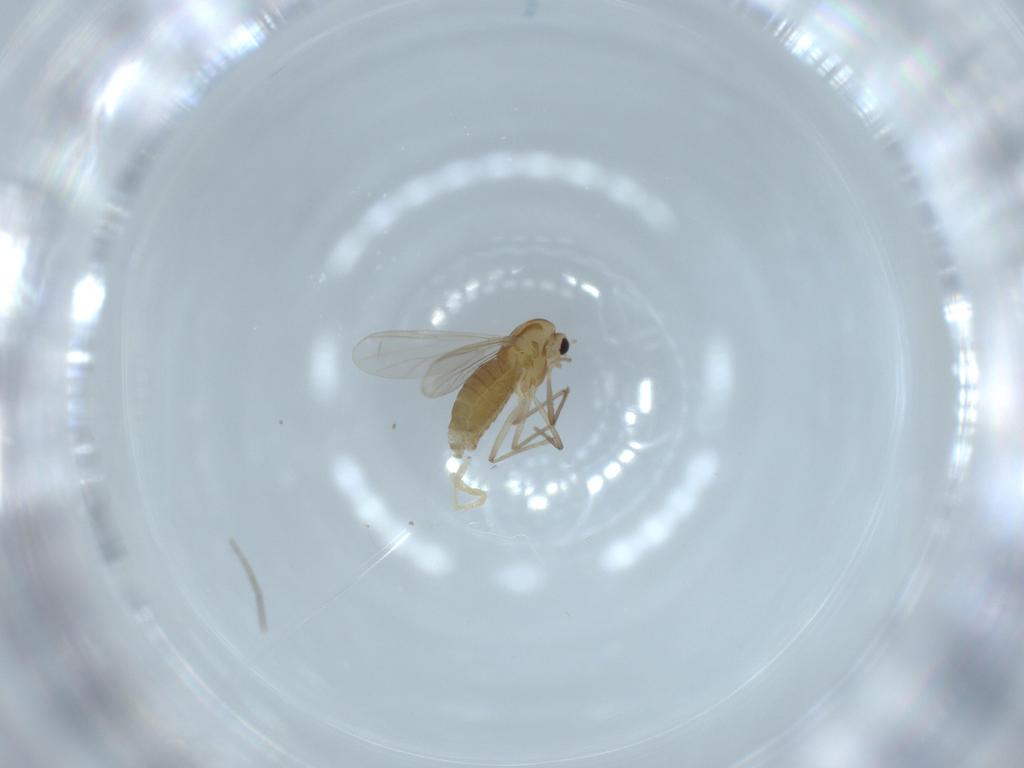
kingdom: Animalia
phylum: Arthropoda
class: Insecta
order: Diptera
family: Chironomidae
